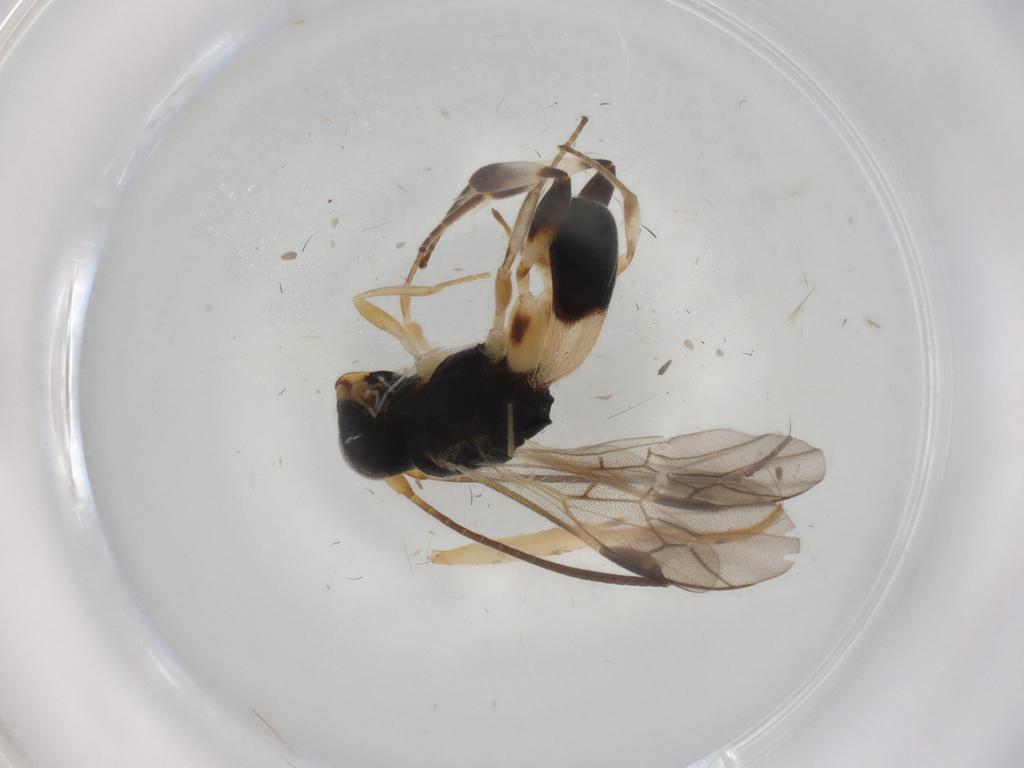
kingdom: Animalia
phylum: Arthropoda
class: Insecta
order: Hymenoptera
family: Braconidae
